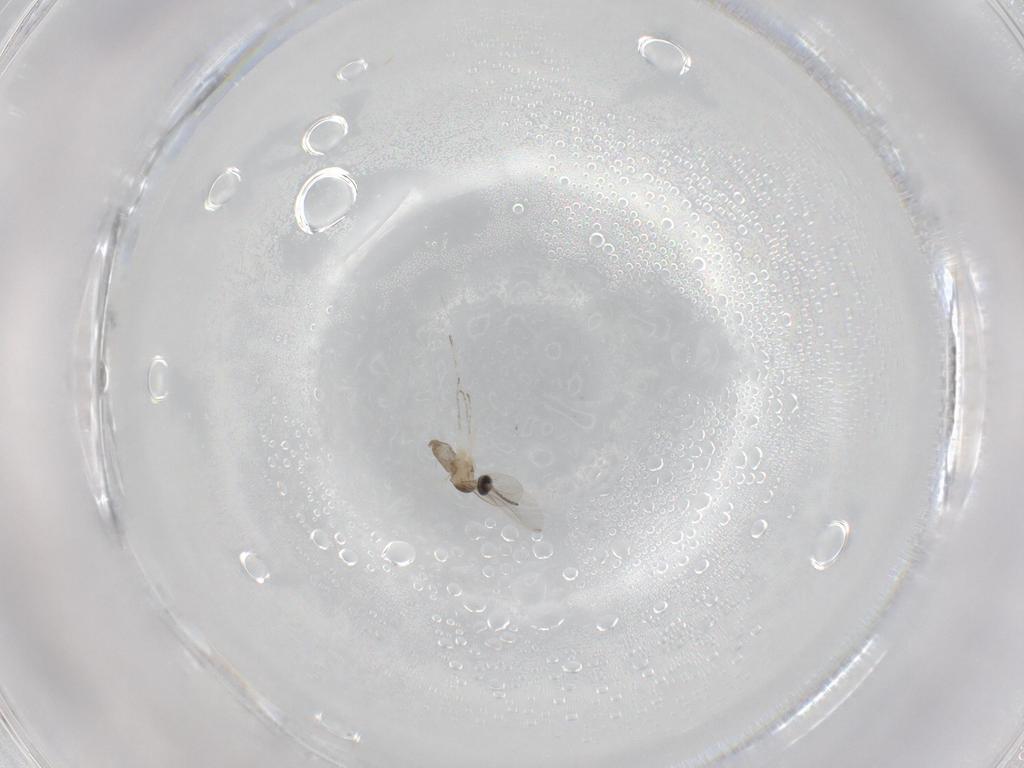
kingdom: Animalia
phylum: Arthropoda
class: Insecta
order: Diptera
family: Cecidomyiidae
